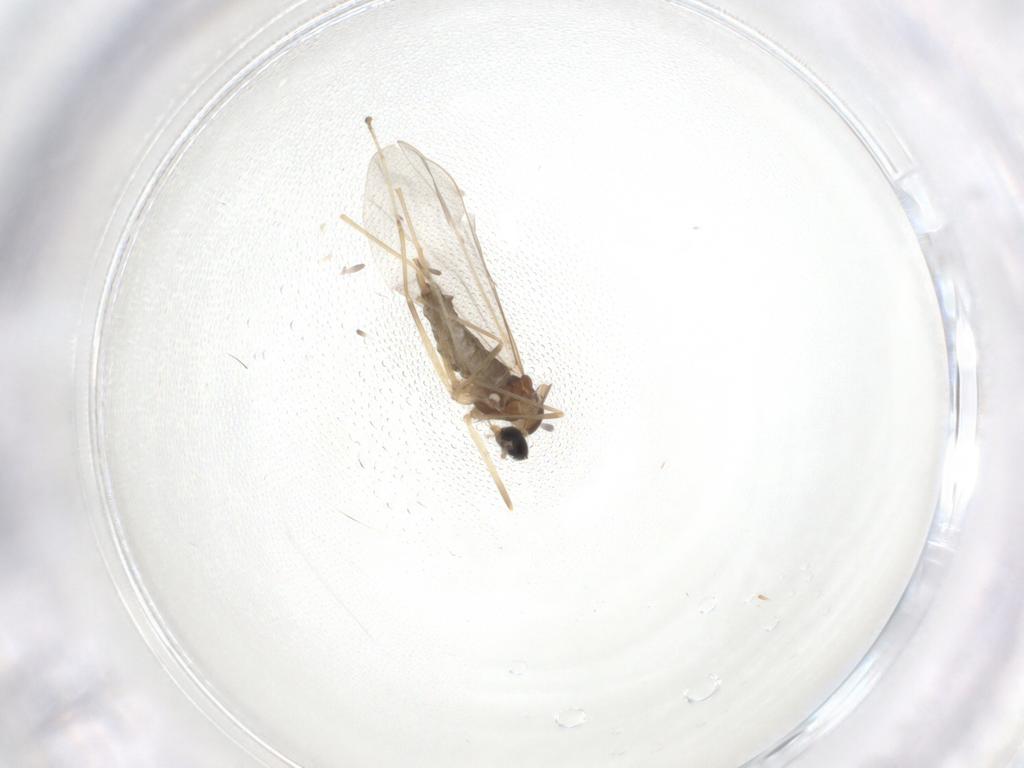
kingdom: Animalia
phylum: Arthropoda
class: Insecta
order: Diptera
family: Cecidomyiidae
